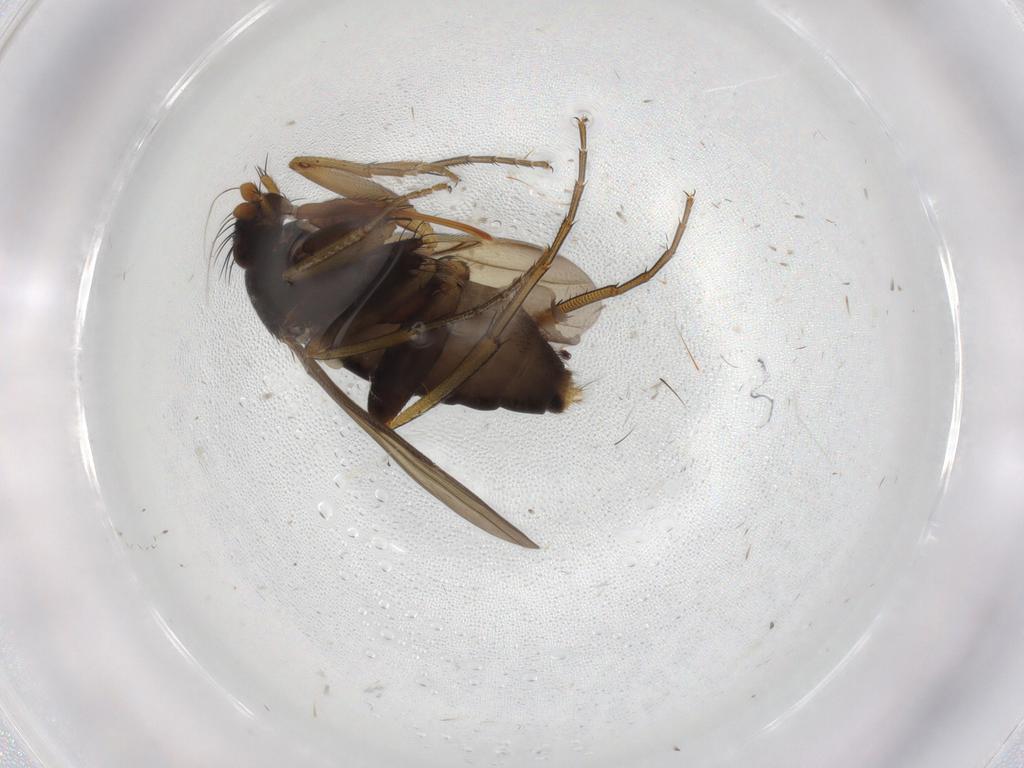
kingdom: Animalia
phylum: Arthropoda
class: Insecta
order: Diptera
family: Phoridae
